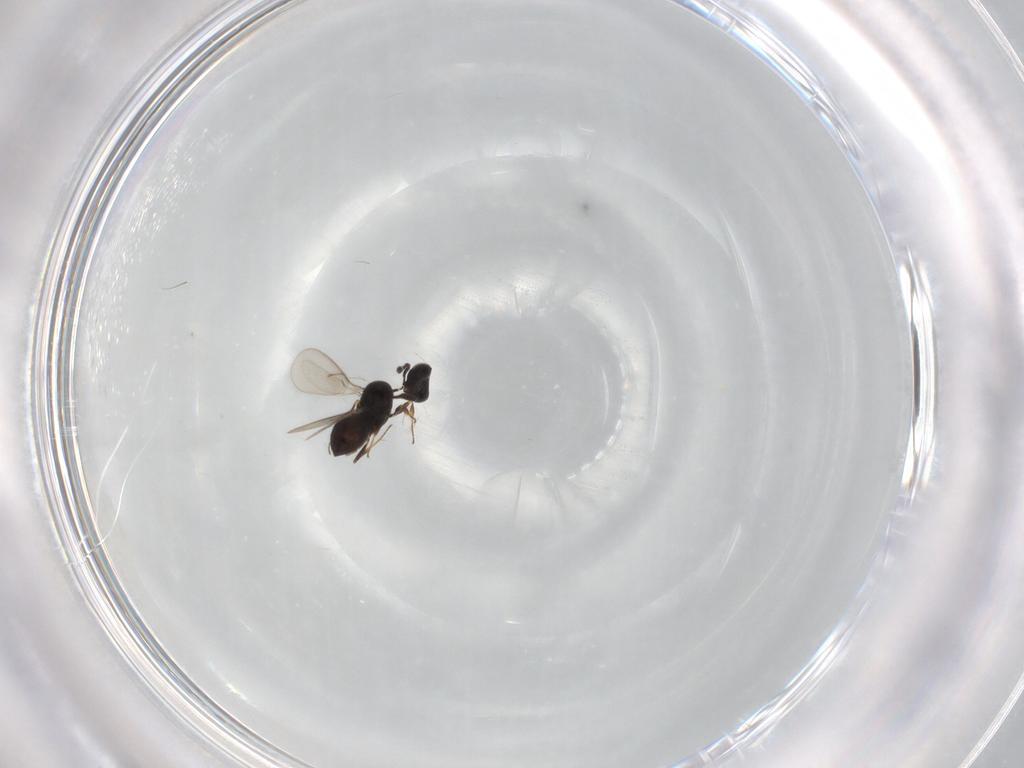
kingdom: Animalia
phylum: Arthropoda
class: Insecta
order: Hymenoptera
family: Scelionidae
